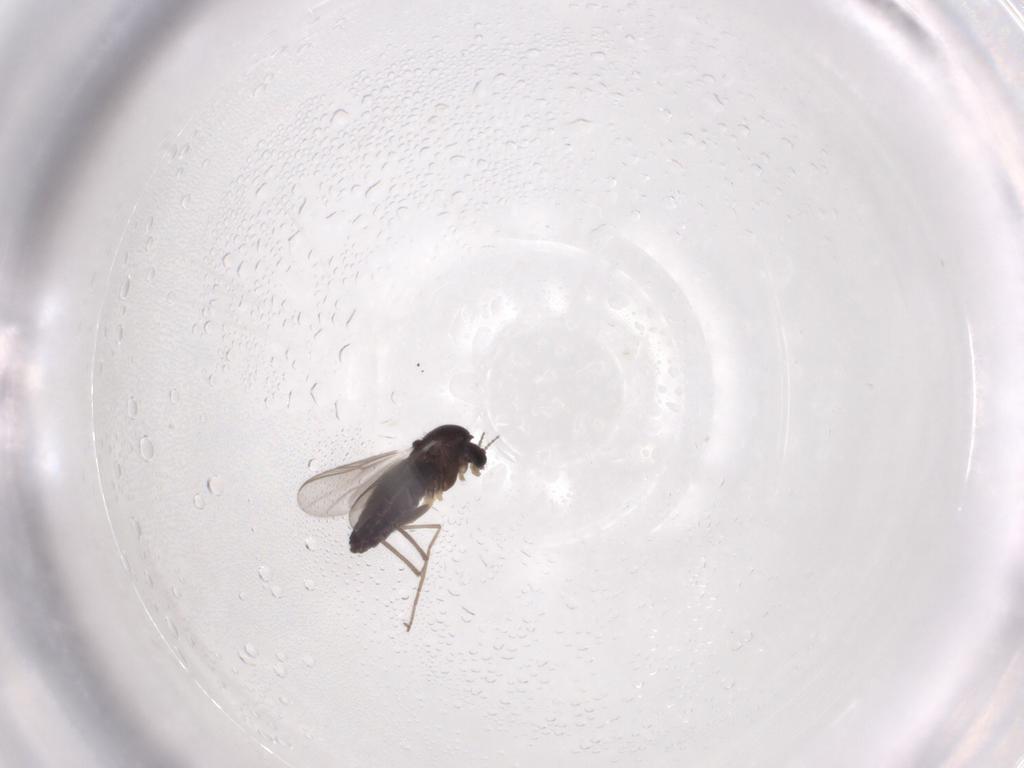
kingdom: Animalia
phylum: Arthropoda
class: Insecta
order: Diptera
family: Chironomidae
